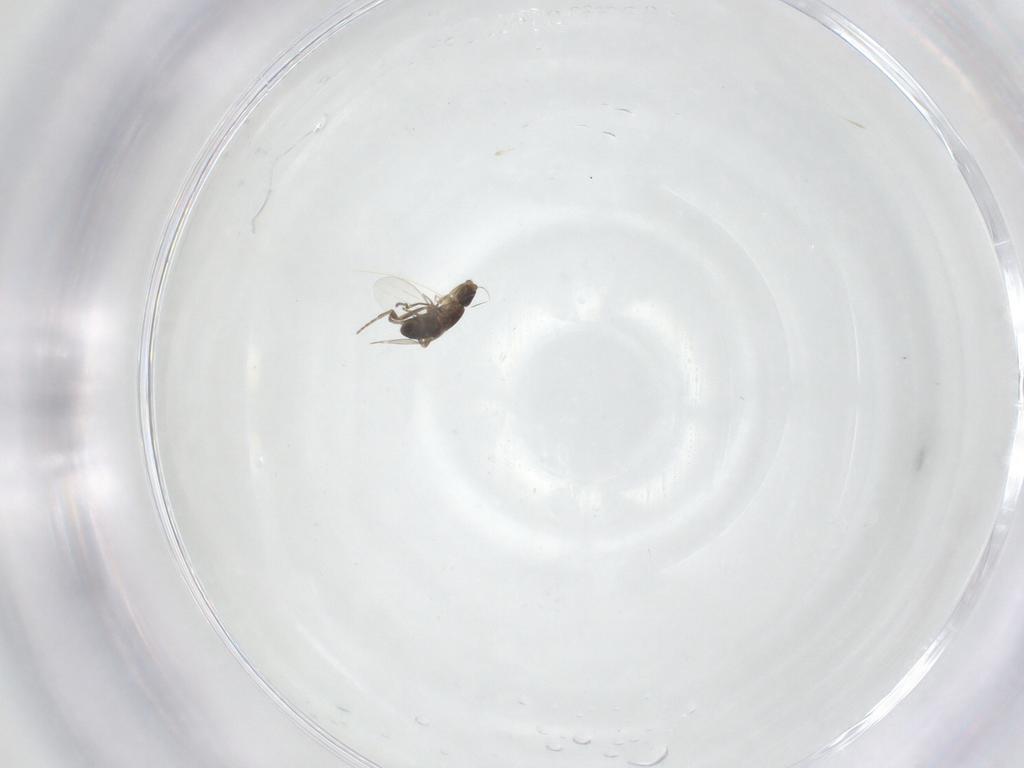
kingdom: Animalia
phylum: Arthropoda
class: Insecta
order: Diptera
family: Phoridae
